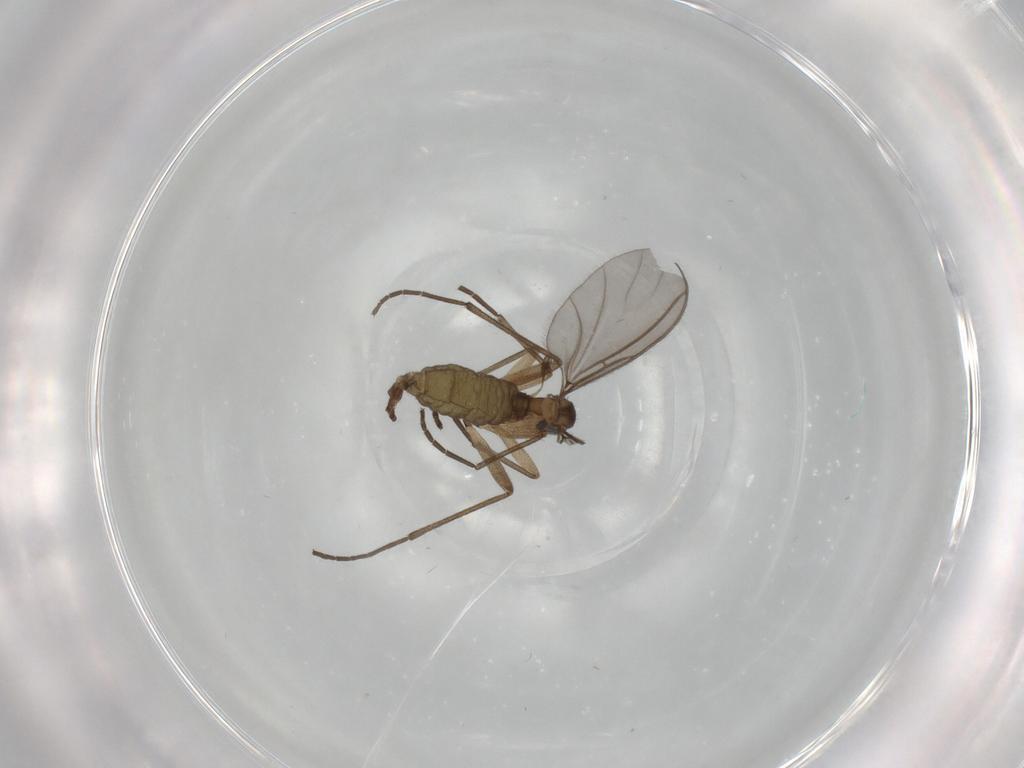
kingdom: Animalia
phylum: Arthropoda
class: Insecta
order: Diptera
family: Sciaridae
